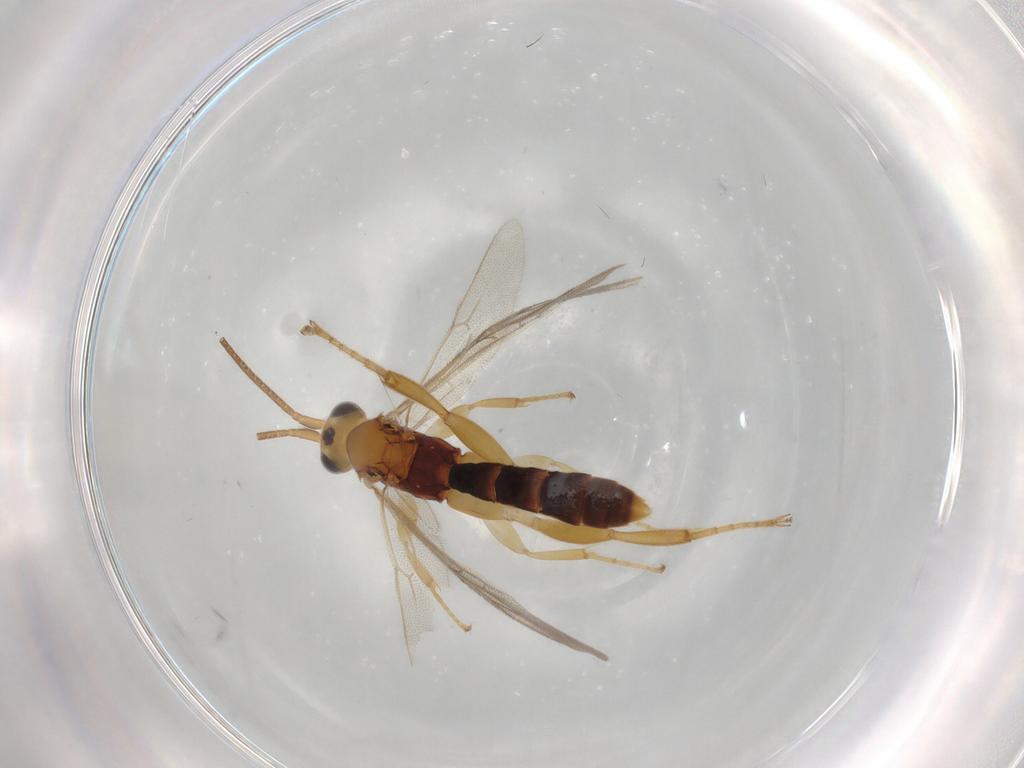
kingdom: Animalia
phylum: Arthropoda
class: Insecta
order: Hymenoptera
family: Ichneumonidae
